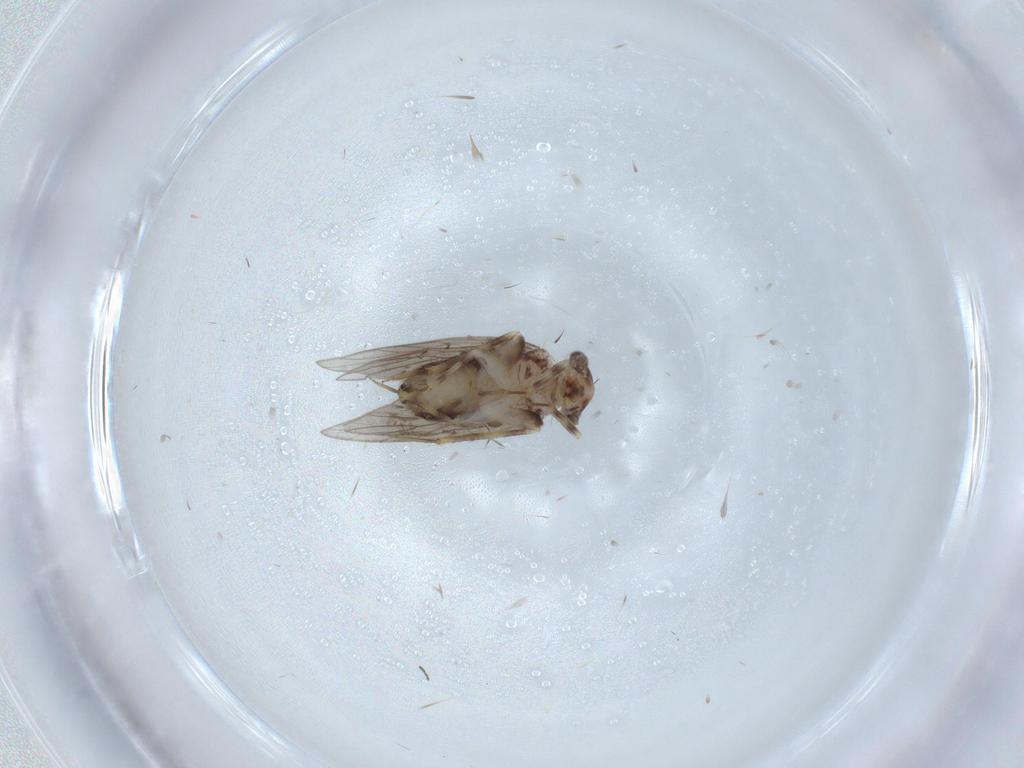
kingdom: Animalia
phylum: Arthropoda
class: Insecta
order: Psocodea
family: Lepidopsocidae
